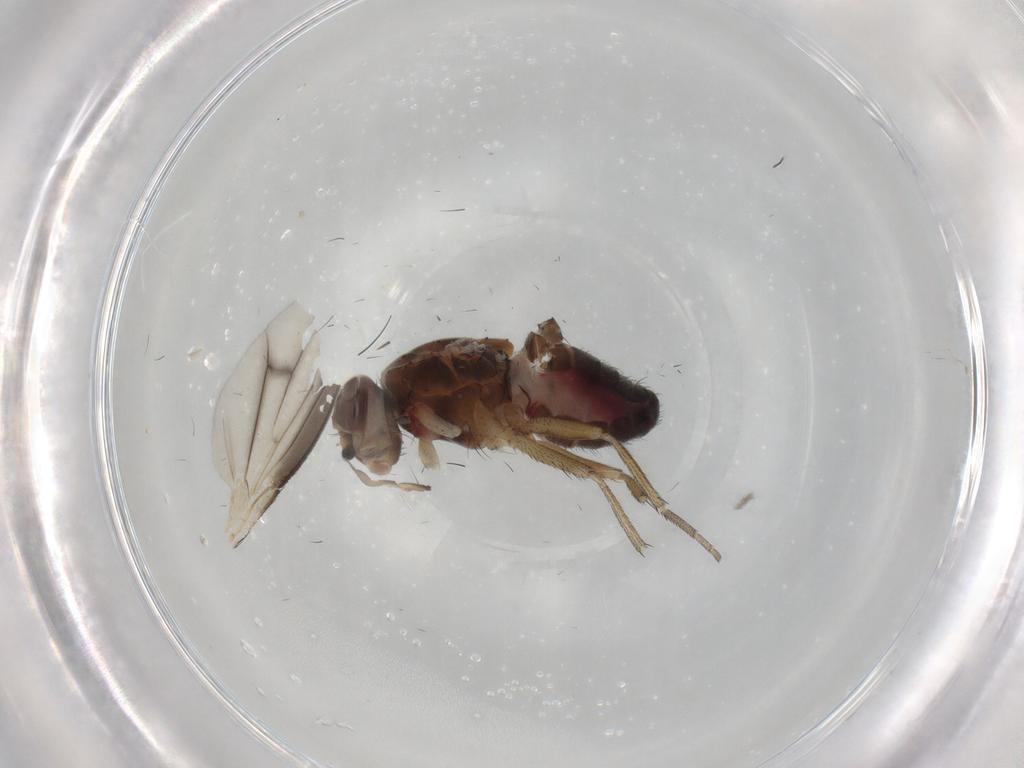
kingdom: Animalia
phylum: Arthropoda
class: Insecta
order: Diptera
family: Heleomyzidae
